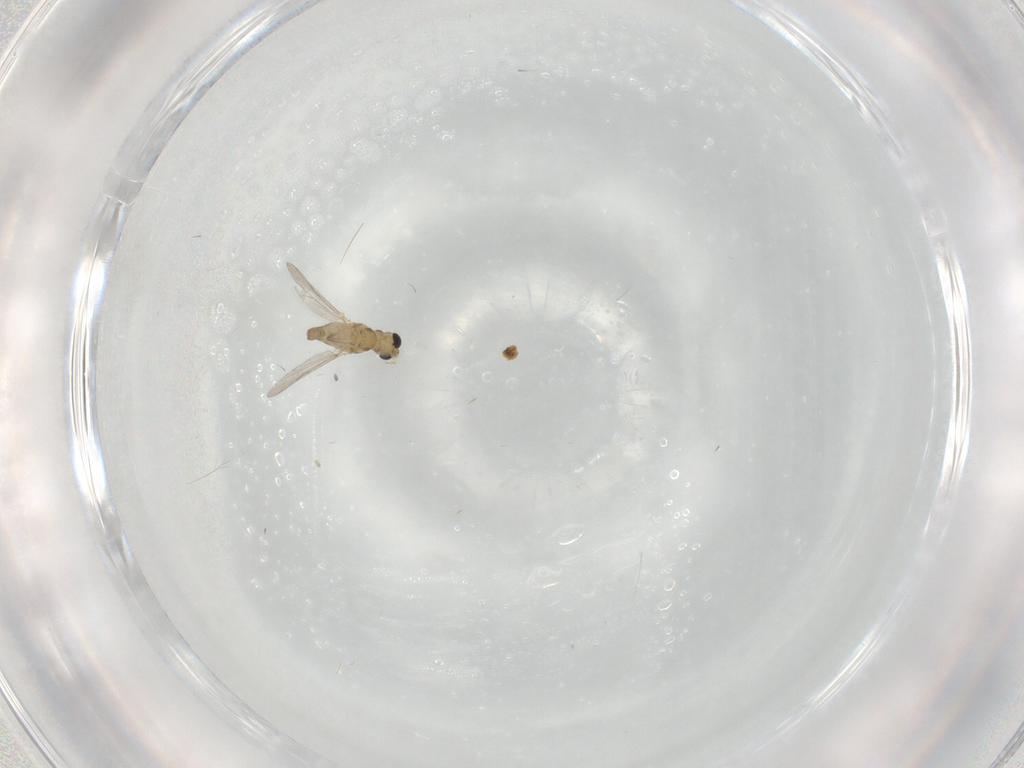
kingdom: Animalia
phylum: Arthropoda
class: Insecta
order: Diptera
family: Chironomidae
